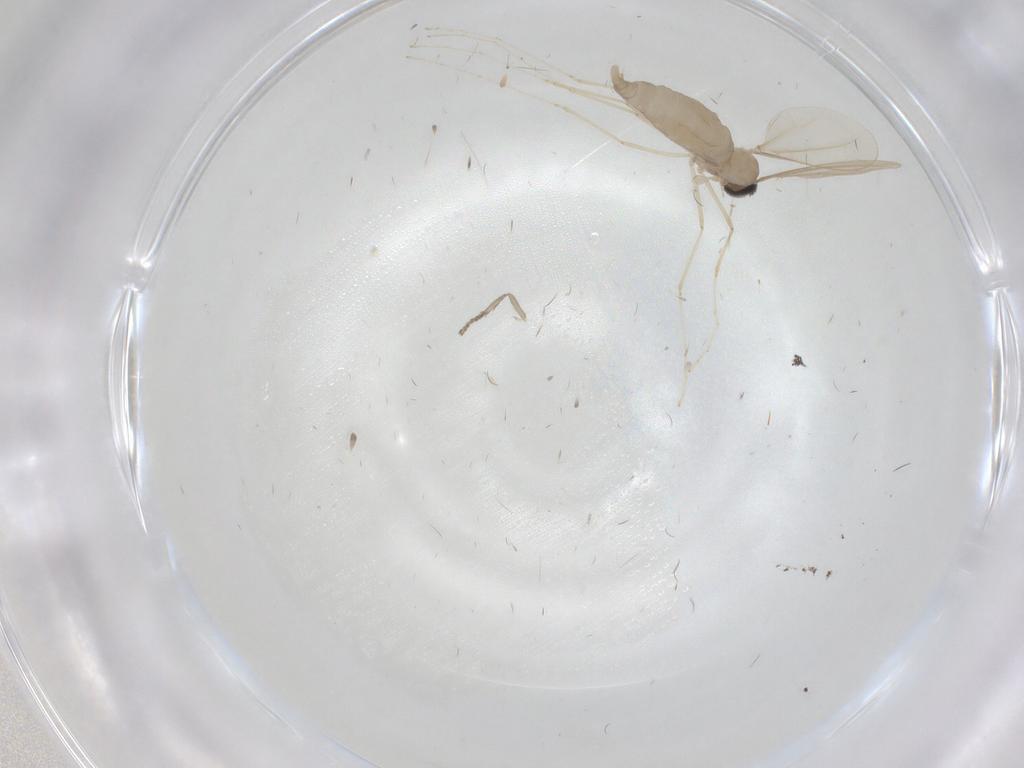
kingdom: Animalia
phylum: Arthropoda
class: Insecta
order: Diptera
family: Cecidomyiidae
